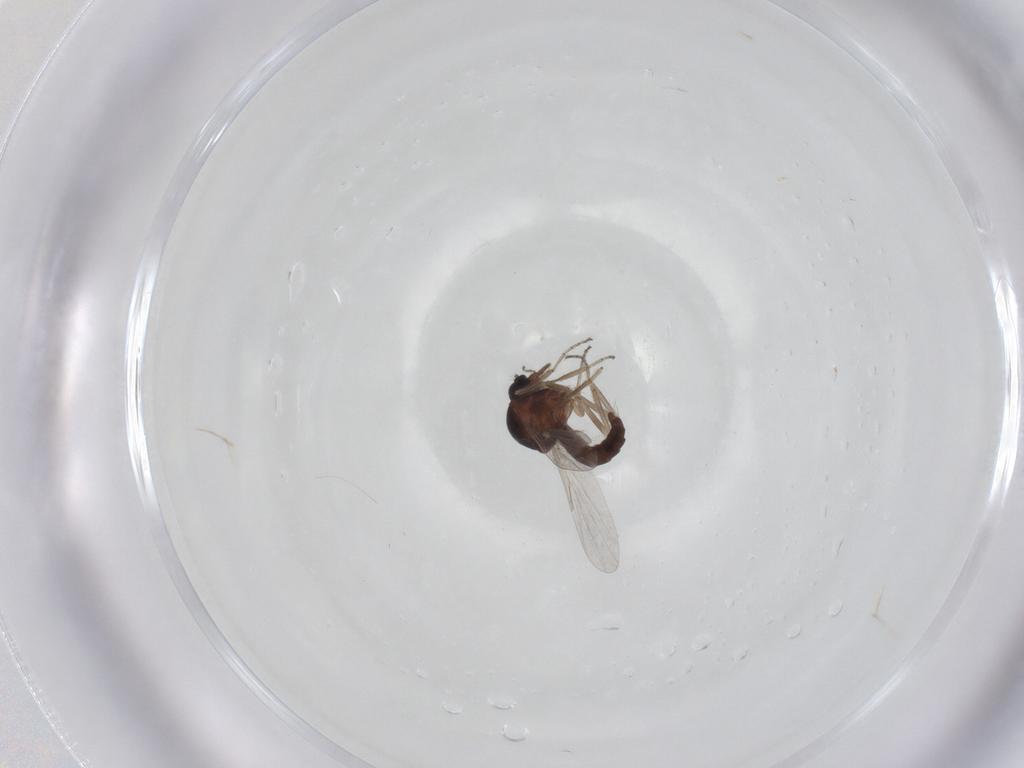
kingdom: Animalia
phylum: Arthropoda
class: Insecta
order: Diptera
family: Ceratopogonidae
